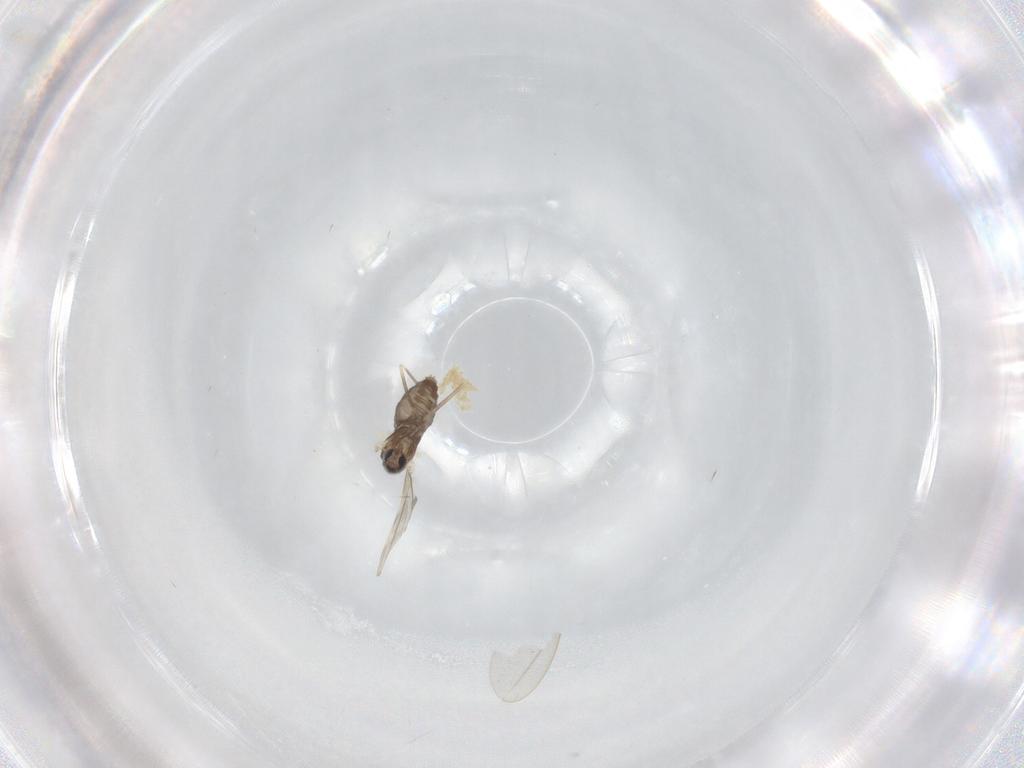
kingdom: Animalia
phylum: Arthropoda
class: Insecta
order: Diptera
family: Cecidomyiidae
